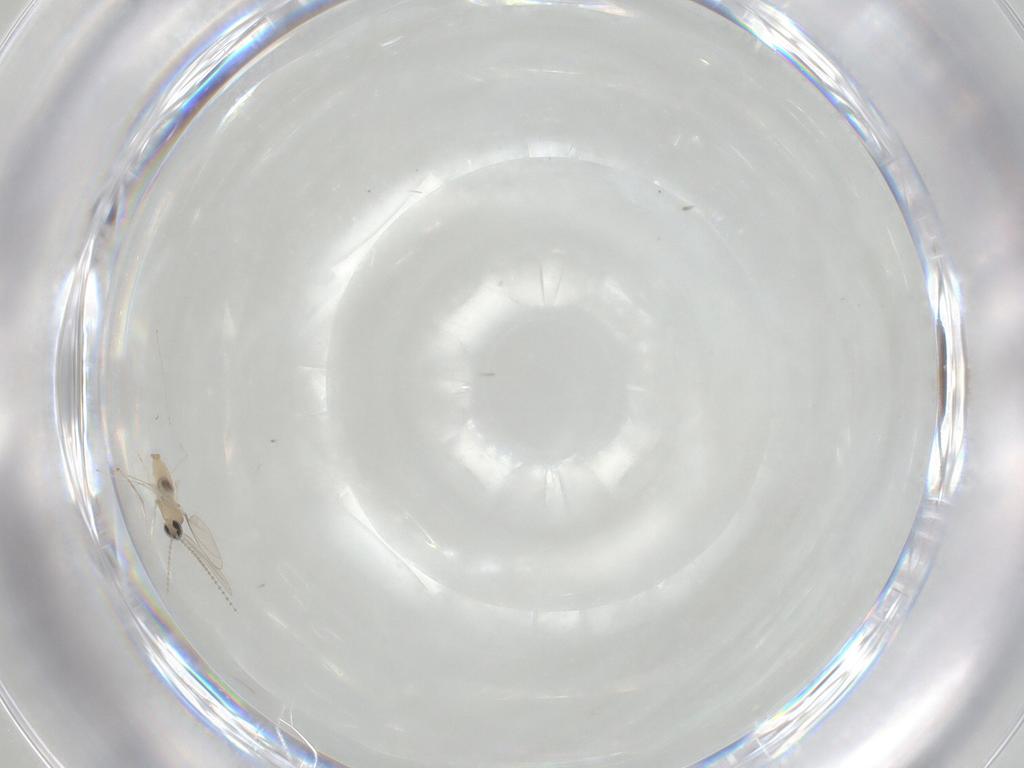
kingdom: Animalia
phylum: Arthropoda
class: Insecta
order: Diptera
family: Cecidomyiidae
